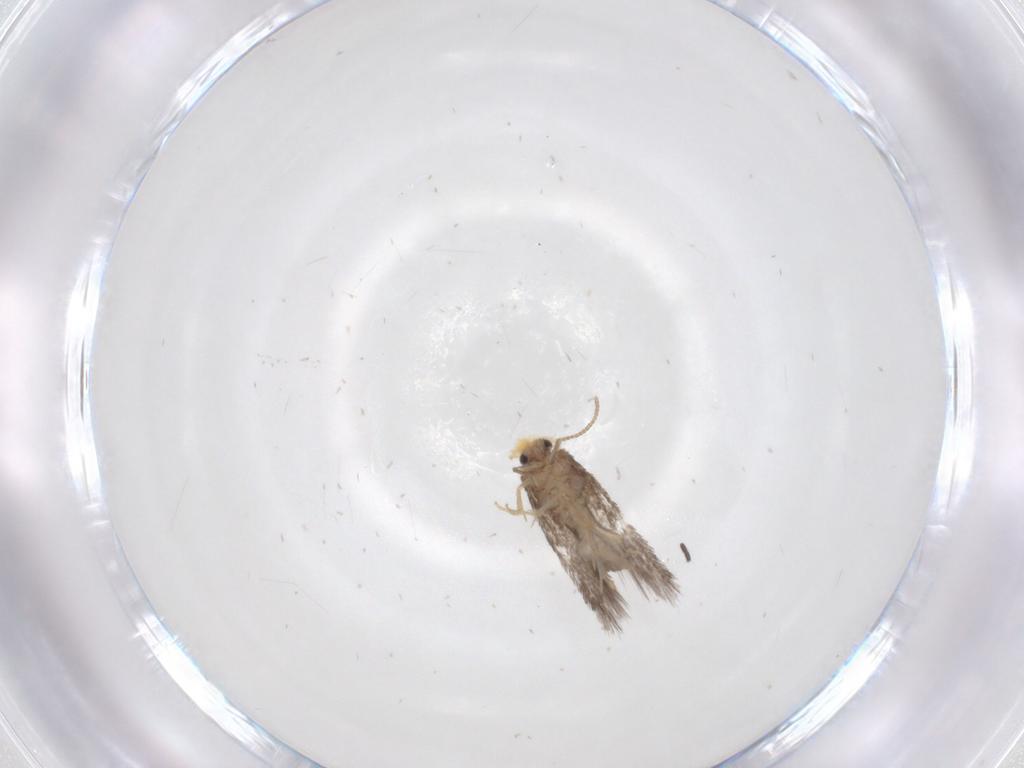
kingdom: Animalia
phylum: Arthropoda
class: Insecta
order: Lepidoptera
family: Nepticulidae
